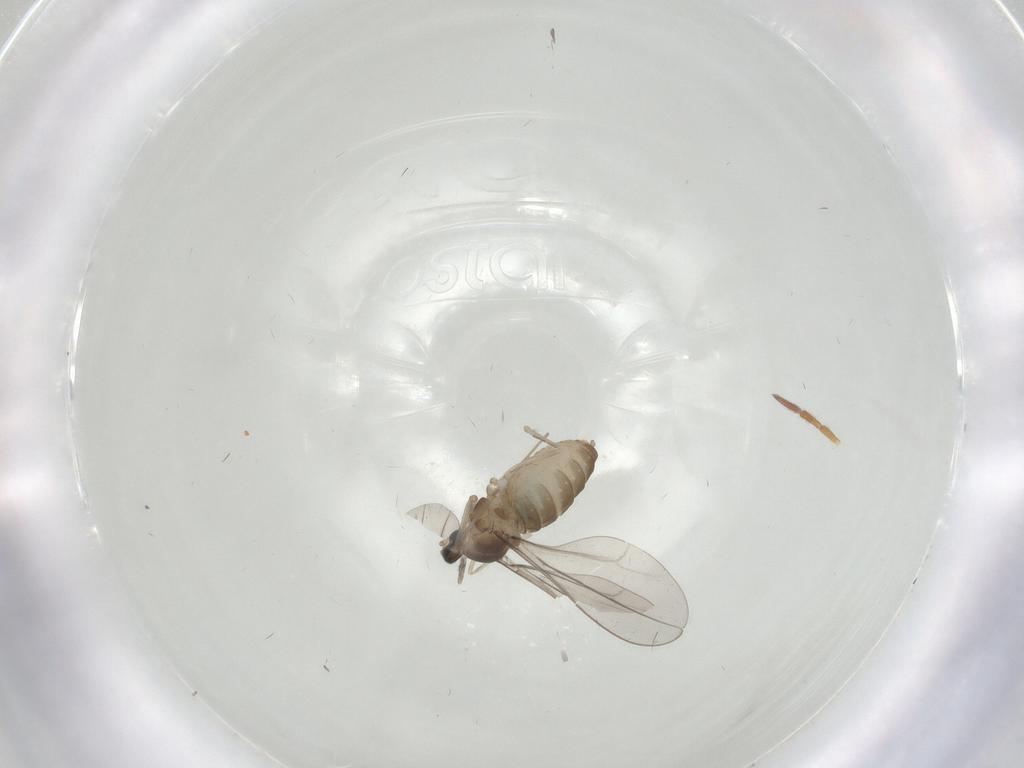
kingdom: Animalia
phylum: Arthropoda
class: Insecta
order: Diptera
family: Cecidomyiidae
